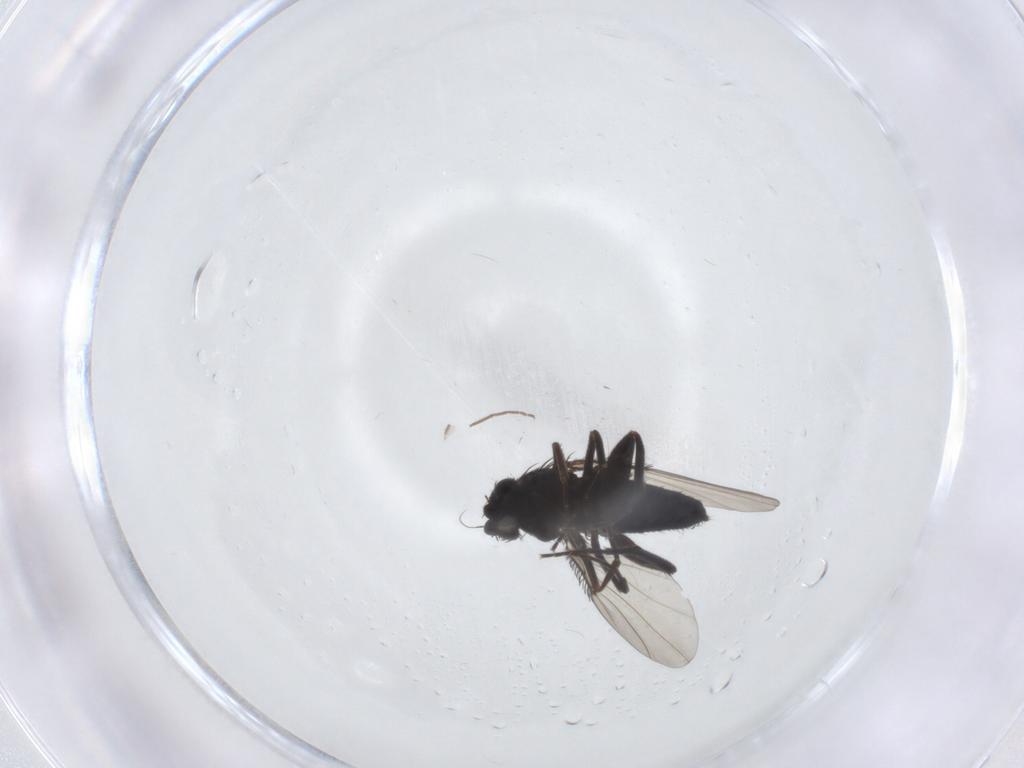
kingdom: Animalia
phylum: Arthropoda
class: Insecta
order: Diptera
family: Phoridae
